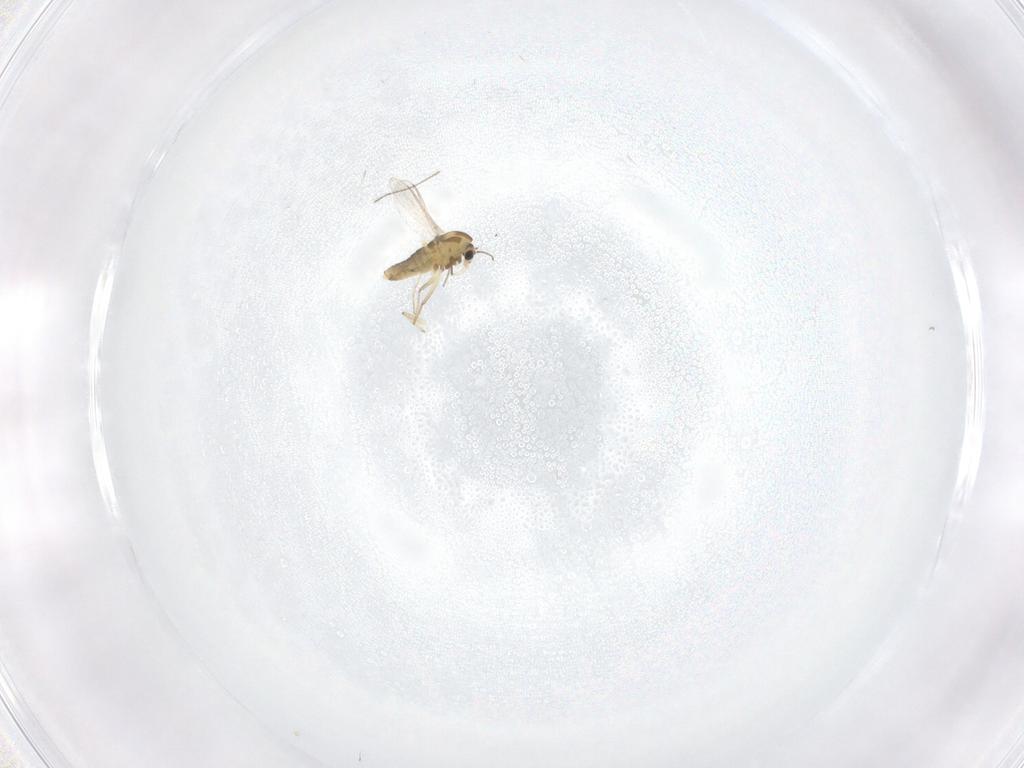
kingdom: Animalia
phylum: Arthropoda
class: Insecta
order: Diptera
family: Chironomidae
